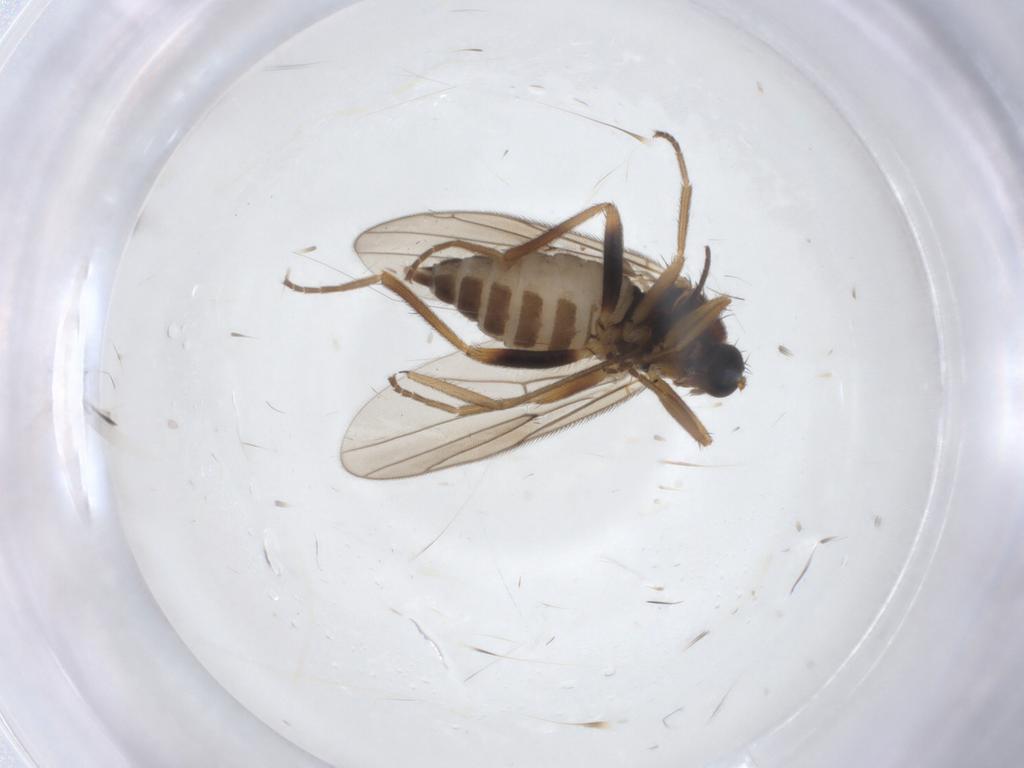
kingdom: Animalia
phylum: Arthropoda
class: Insecta
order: Diptera
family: Hybotidae
